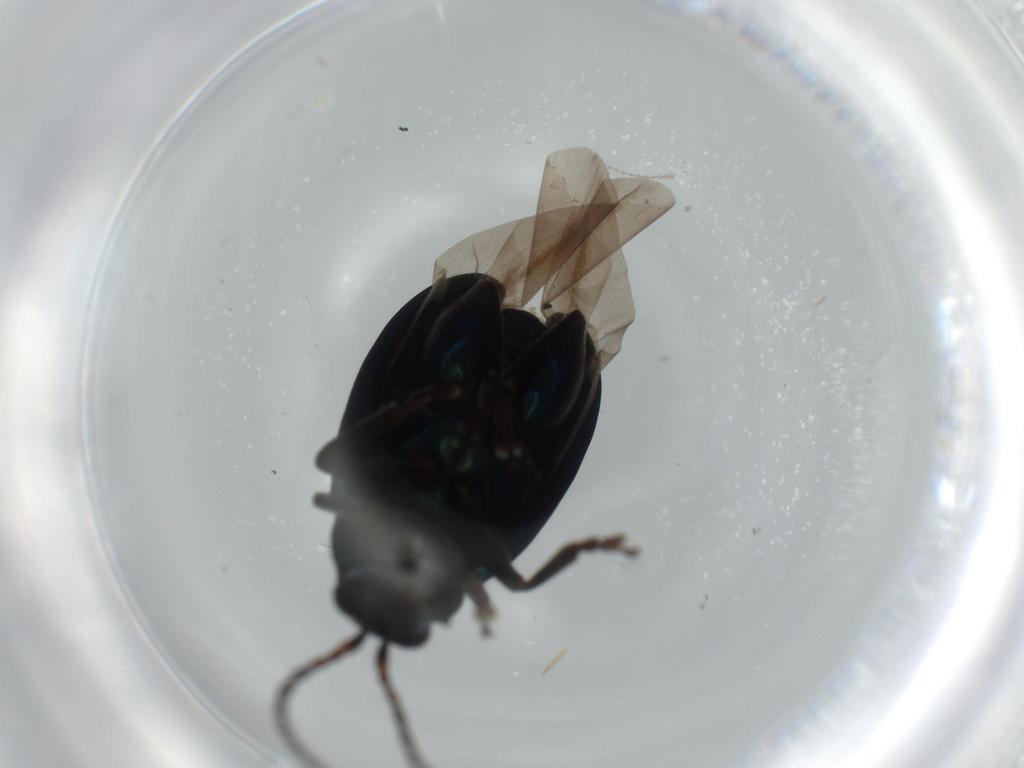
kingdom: Animalia
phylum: Arthropoda
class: Insecta
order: Coleoptera
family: Chrysomelidae
